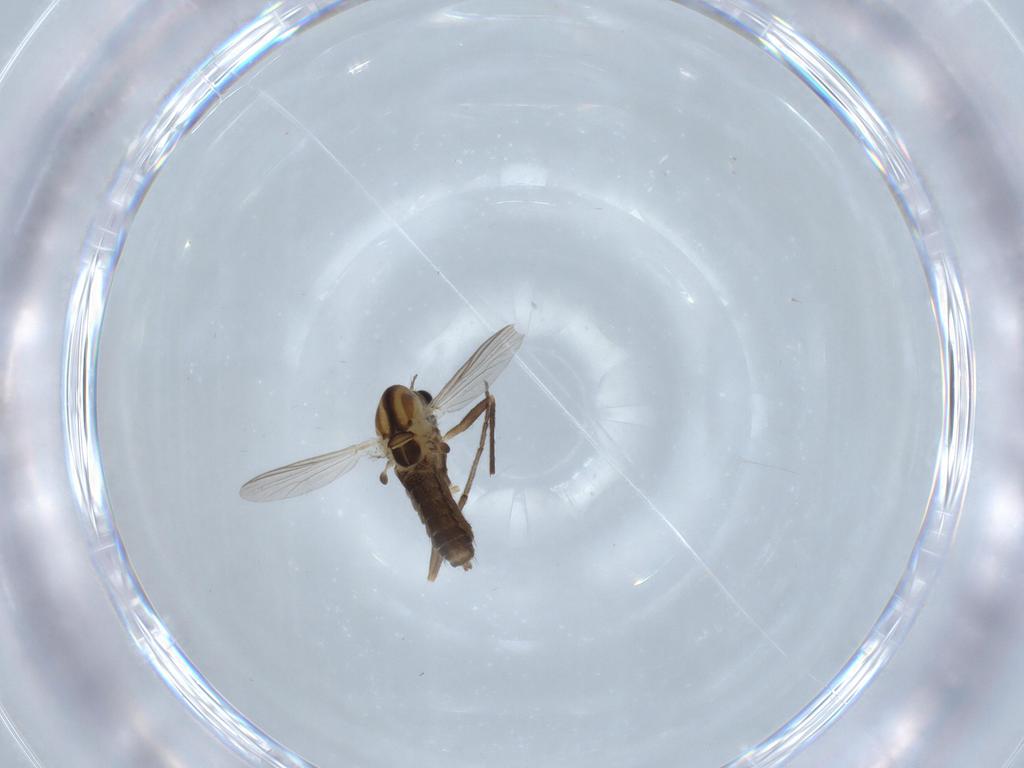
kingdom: Animalia
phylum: Arthropoda
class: Insecta
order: Diptera
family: Chironomidae
